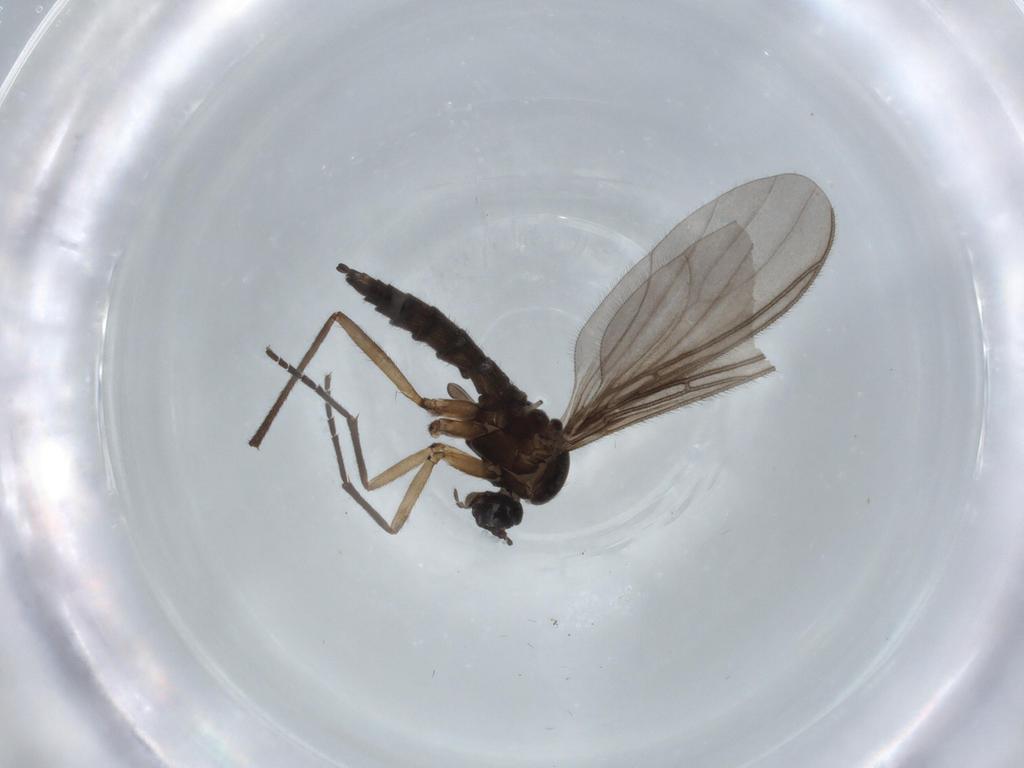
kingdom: Animalia
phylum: Arthropoda
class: Insecta
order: Diptera
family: Sciaridae
